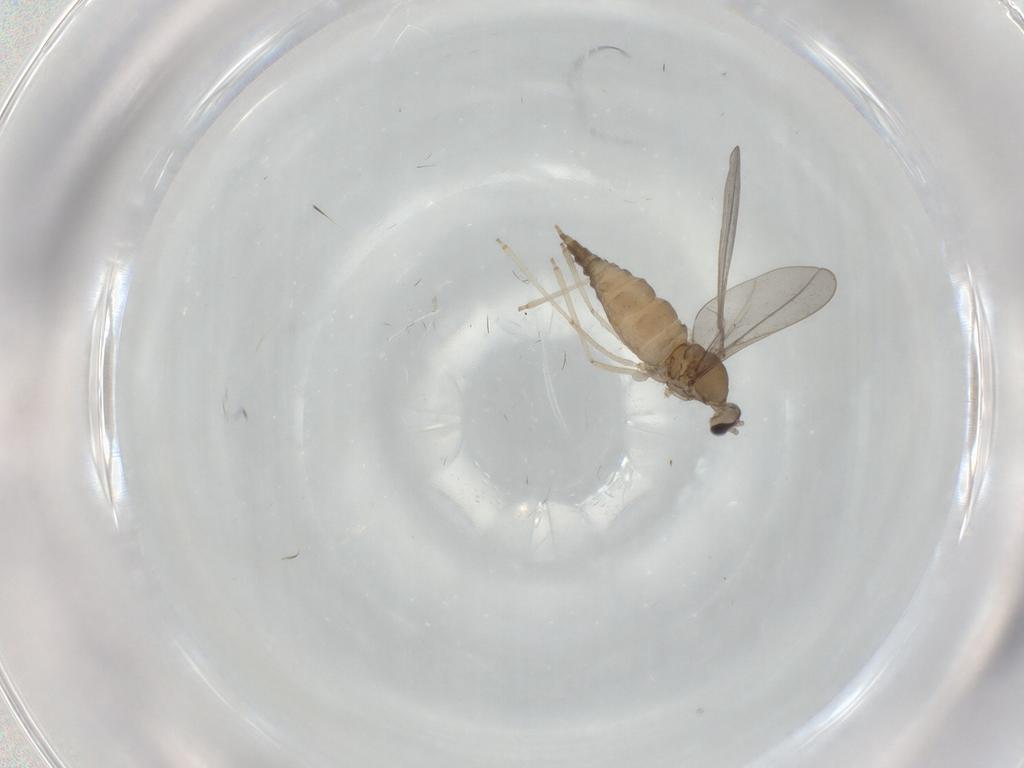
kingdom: Animalia
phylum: Arthropoda
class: Insecta
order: Diptera
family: Cecidomyiidae
